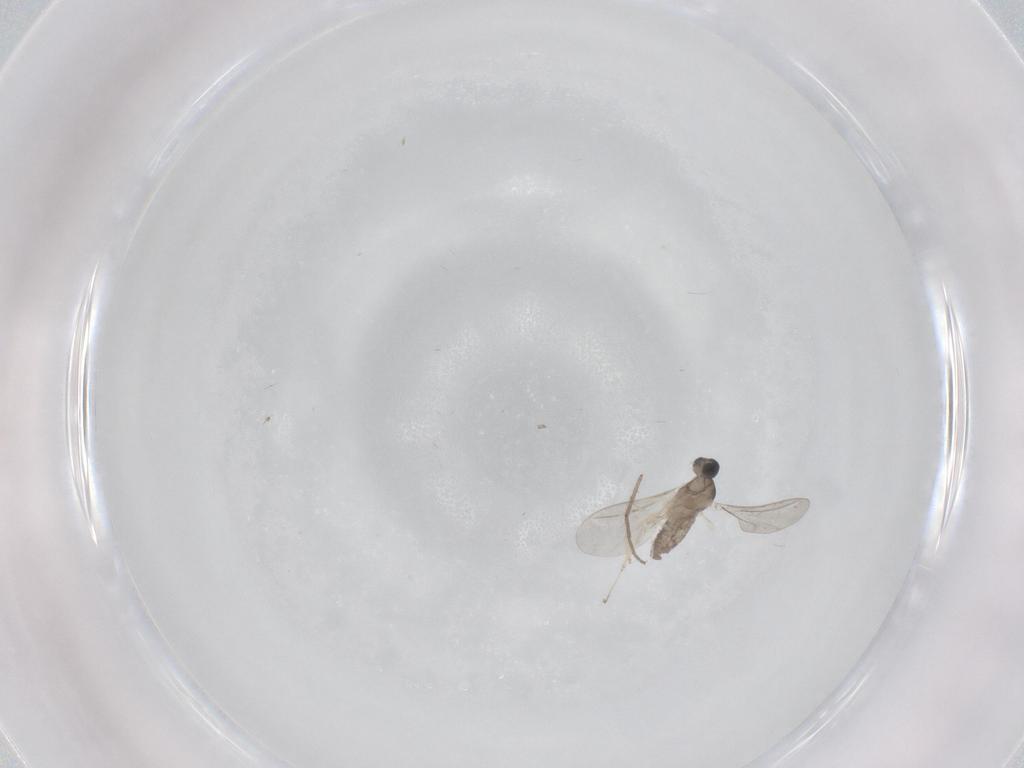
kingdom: Animalia
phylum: Arthropoda
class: Insecta
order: Diptera
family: Cecidomyiidae
